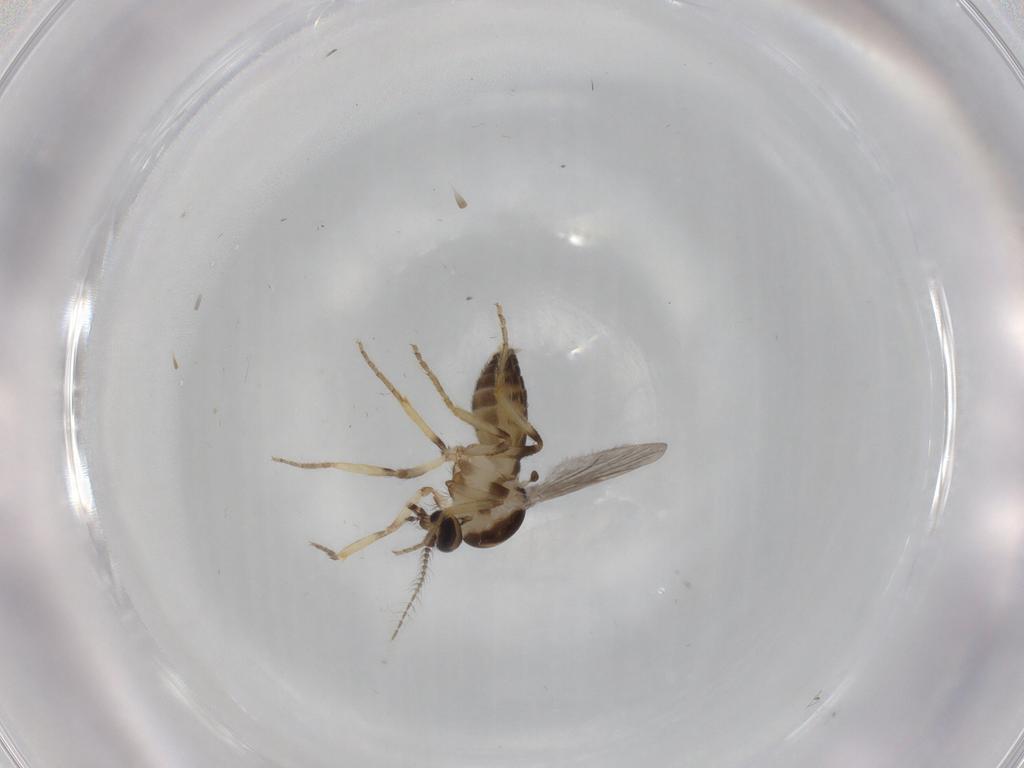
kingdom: Animalia
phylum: Arthropoda
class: Insecta
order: Diptera
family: Ceratopogonidae
